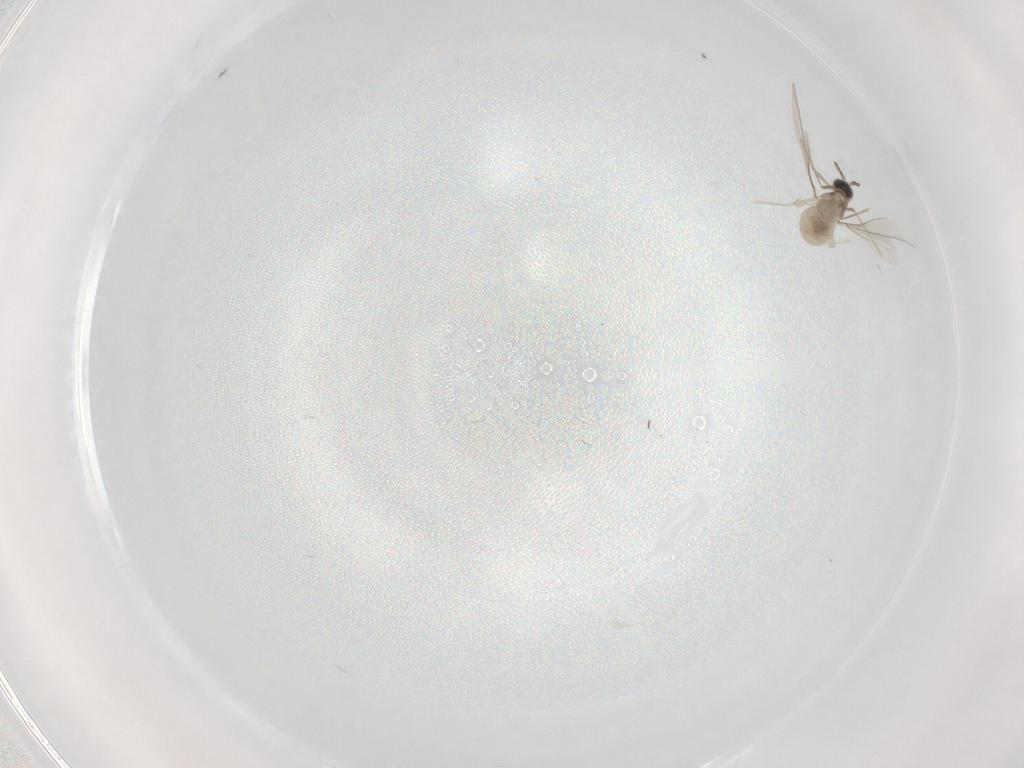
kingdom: Animalia
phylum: Arthropoda
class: Insecta
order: Diptera
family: Cecidomyiidae
